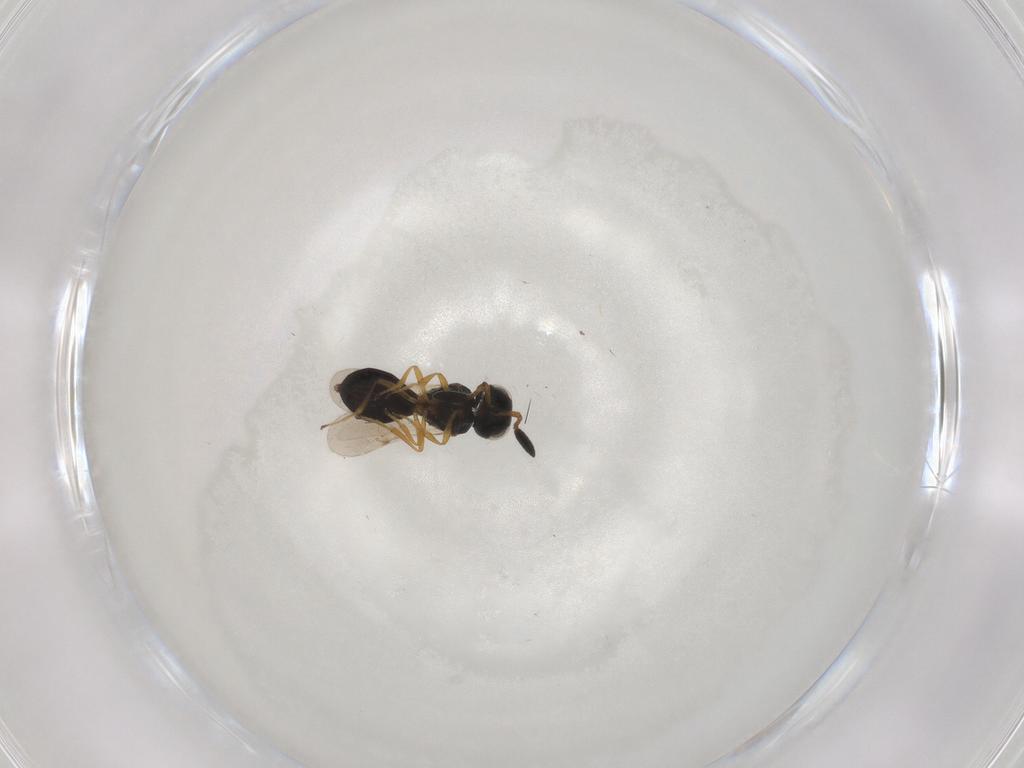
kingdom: Animalia
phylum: Arthropoda
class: Insecta
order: Hymenoptera
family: Scelionidae
